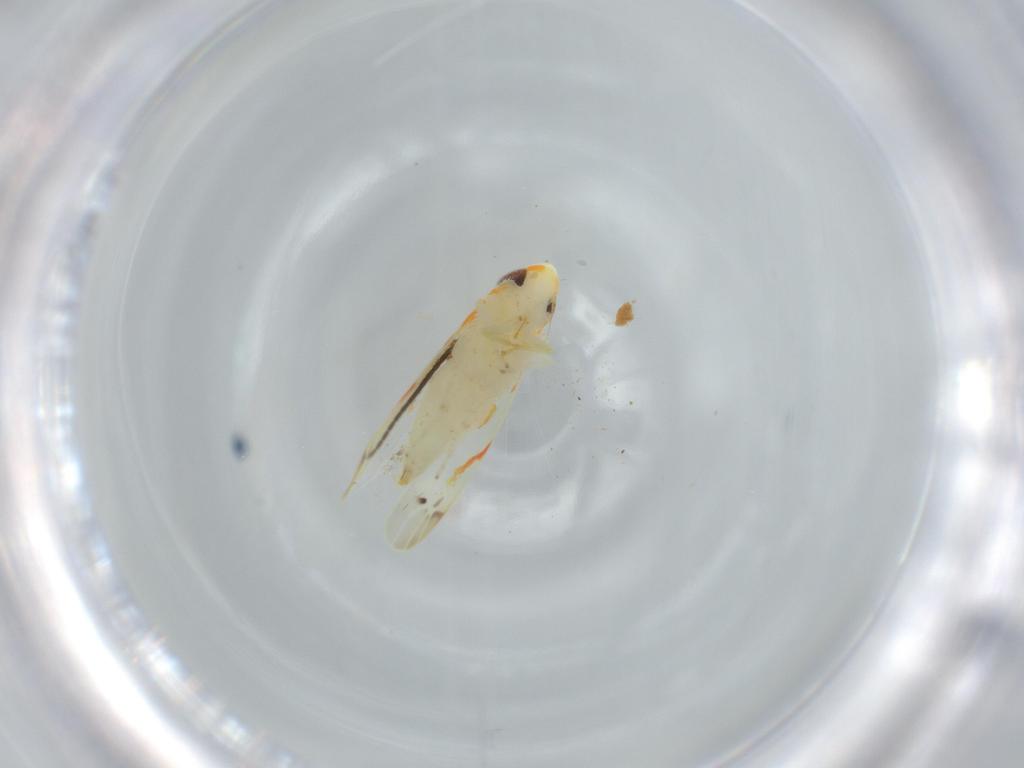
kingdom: Animalia
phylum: Arthropoda
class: Insecta
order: Hemiptera
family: Cicadellidae
